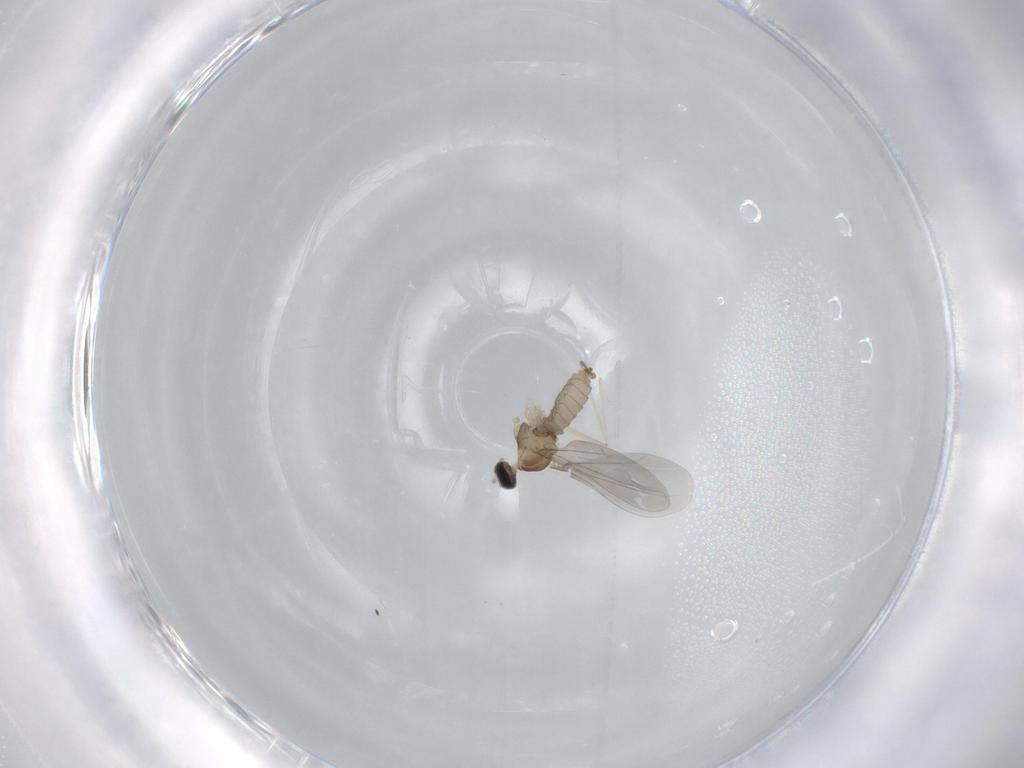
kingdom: Animalia
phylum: Arthropoda
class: Insecta
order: Diptera
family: Cecidomyiidae
